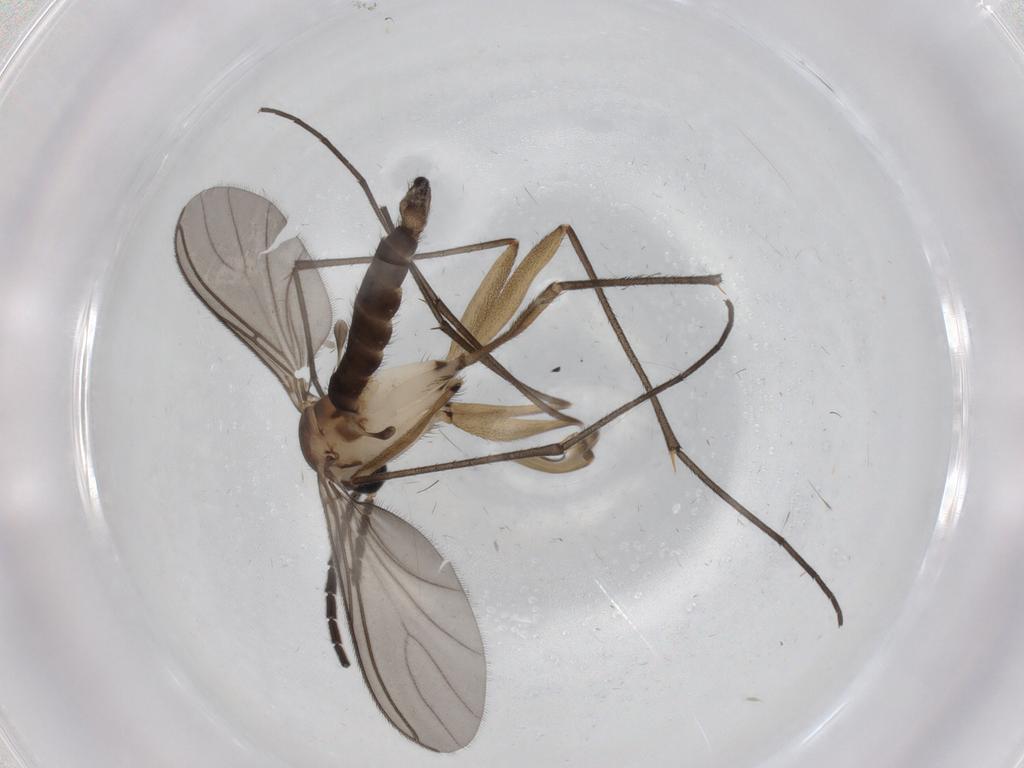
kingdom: Animalia
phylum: Arthropoda
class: Insecta
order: Diptera
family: Sciaridae
